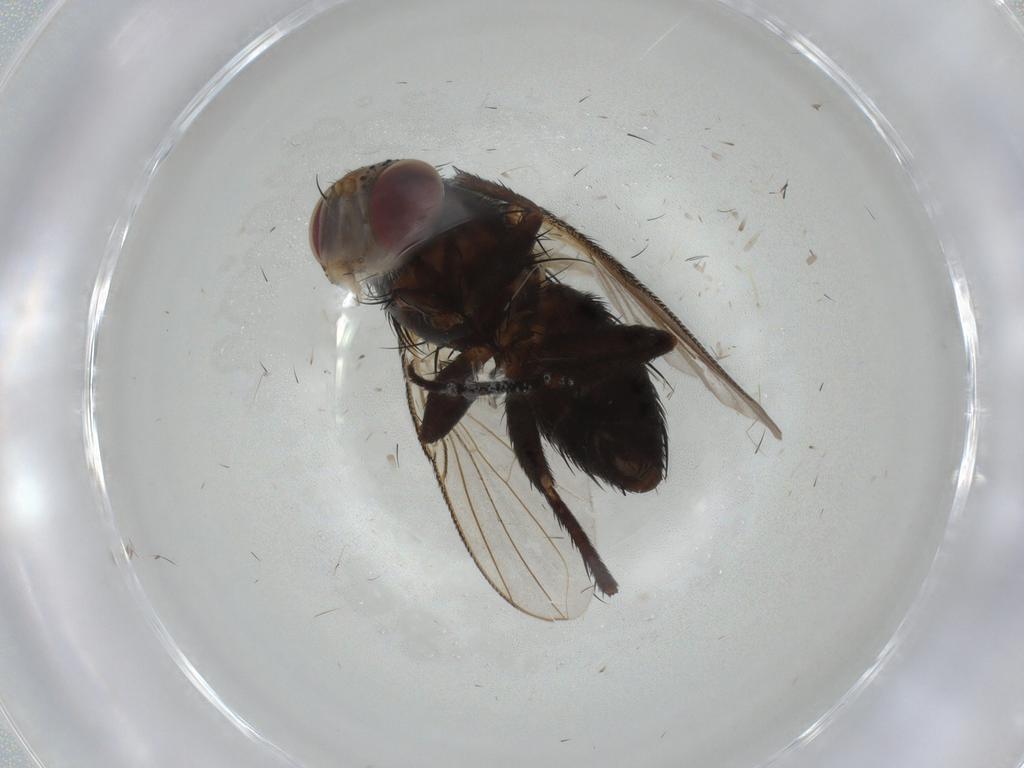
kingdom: Animalia
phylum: Arthropoda
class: Insecta
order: Diptera
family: Tachinidae
